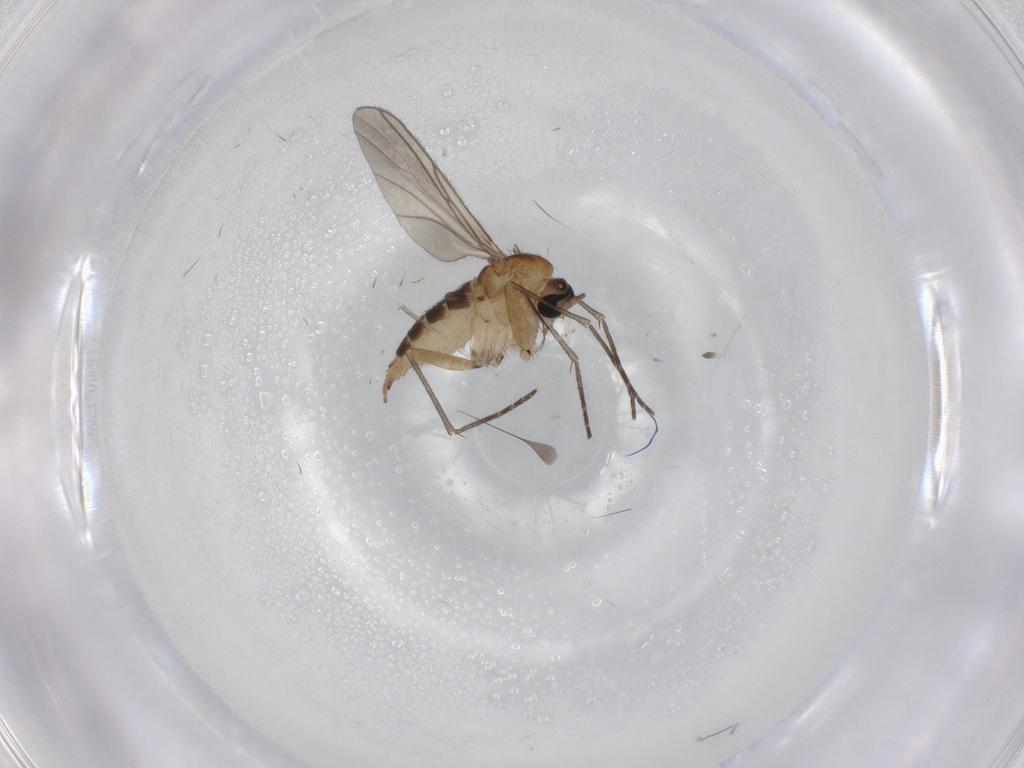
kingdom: Animalia
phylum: Arthropoda
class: Insecta
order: Diptera
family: Sciaridae
